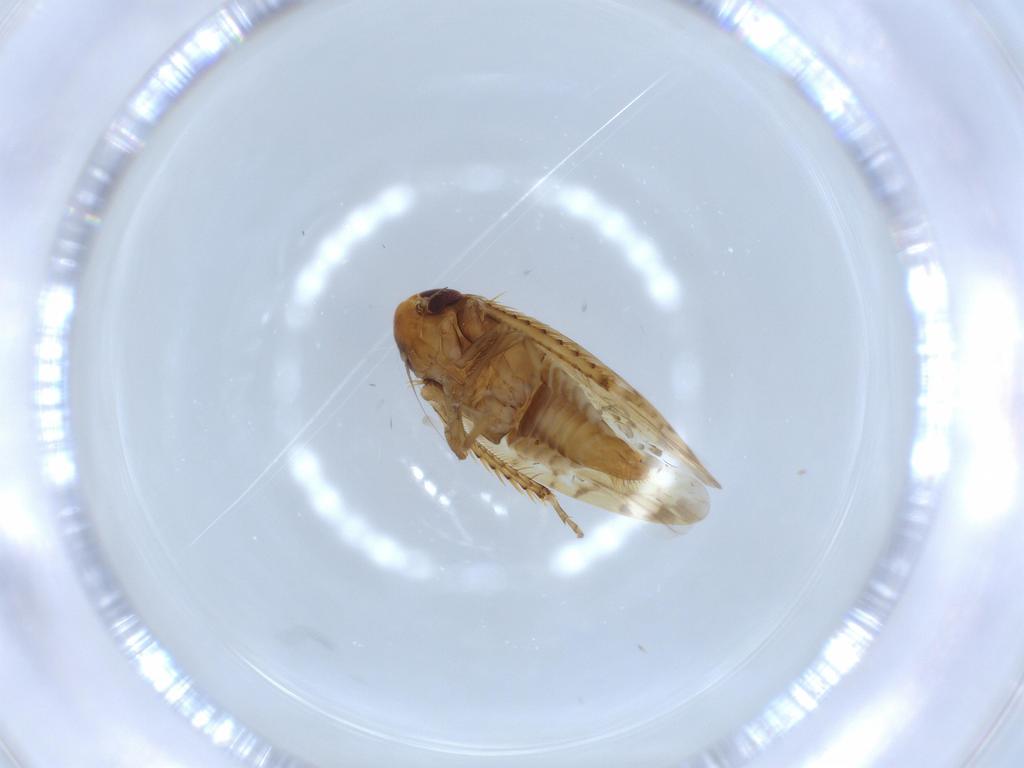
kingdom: Animalia
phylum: Arthropoda
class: Insecta
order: Hemiptera
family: Cicadellidae
